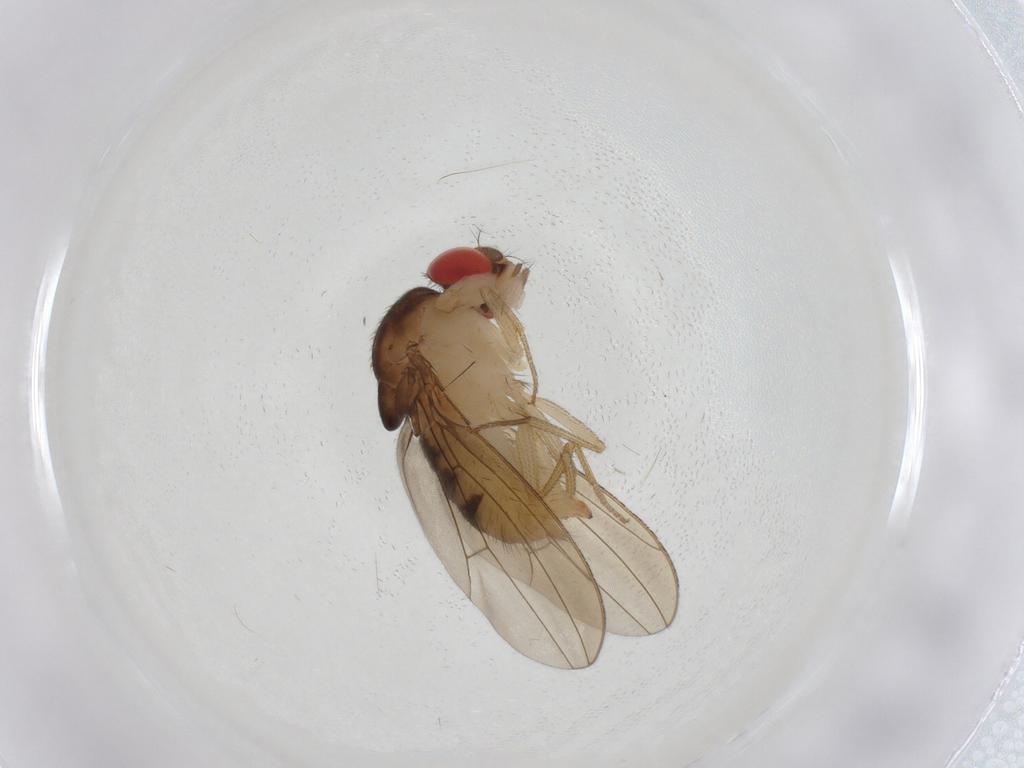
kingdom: Animalia
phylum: Arthropoda
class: Insecta
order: Diptera
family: Drosophilidae
